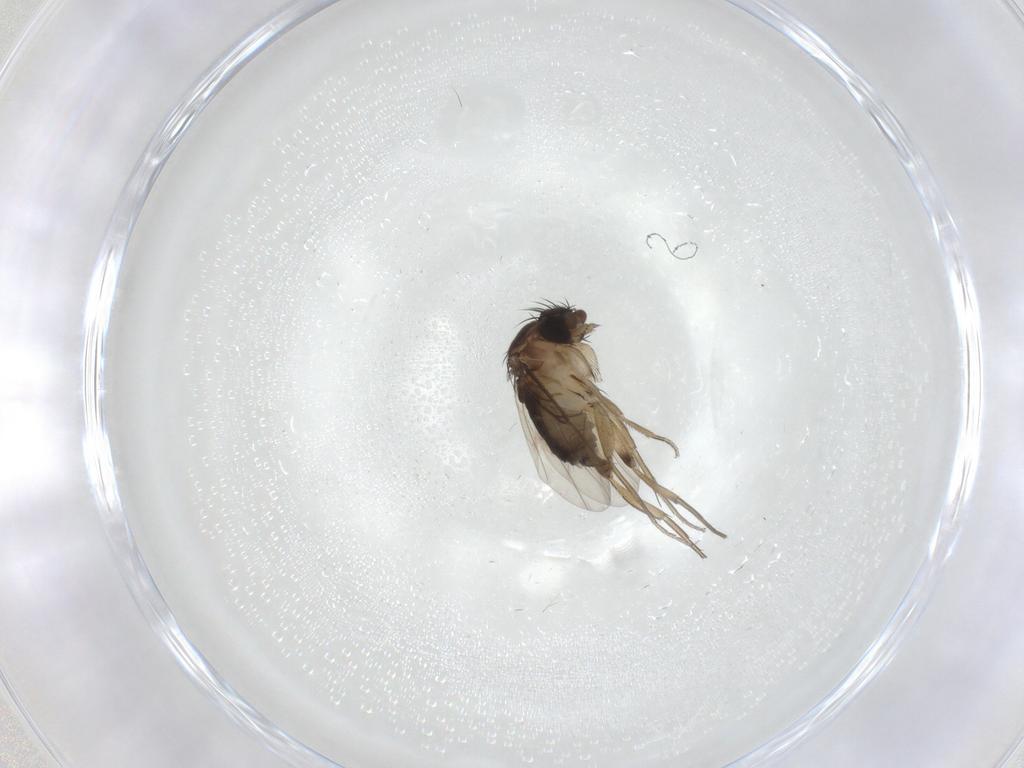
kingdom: Animalia
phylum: Arthropoda
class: Insecta
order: Diptera
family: Phoridae
